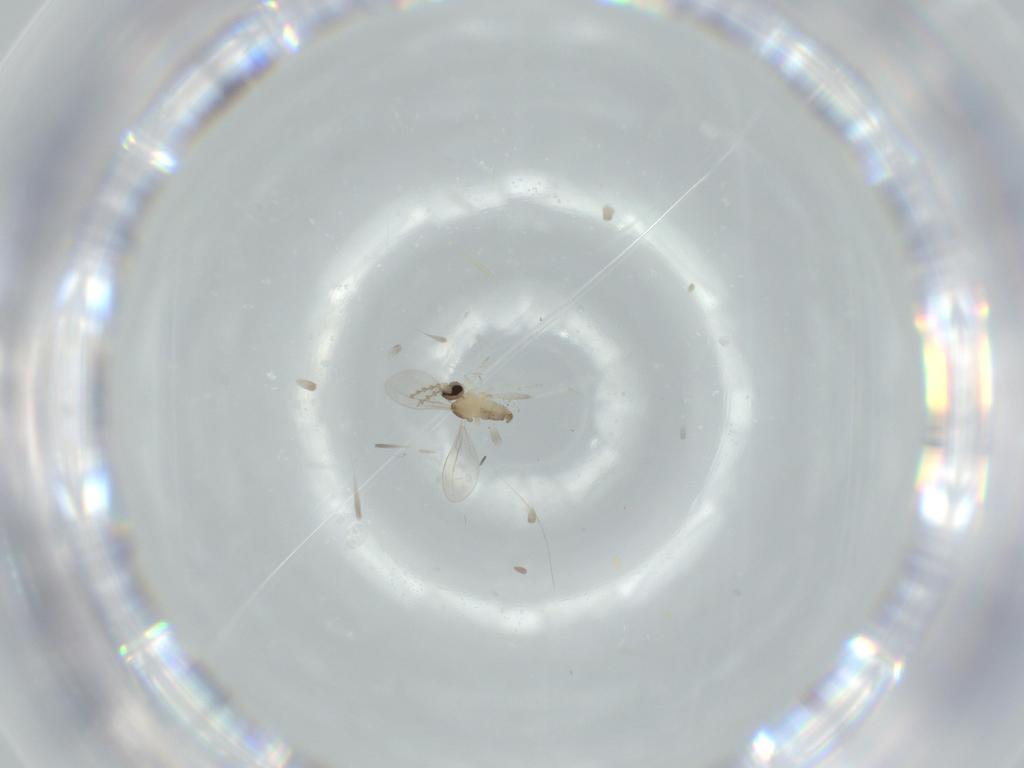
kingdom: Animalia
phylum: Arthropoda
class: Insecta
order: Diptera
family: Cecidomyiidae
